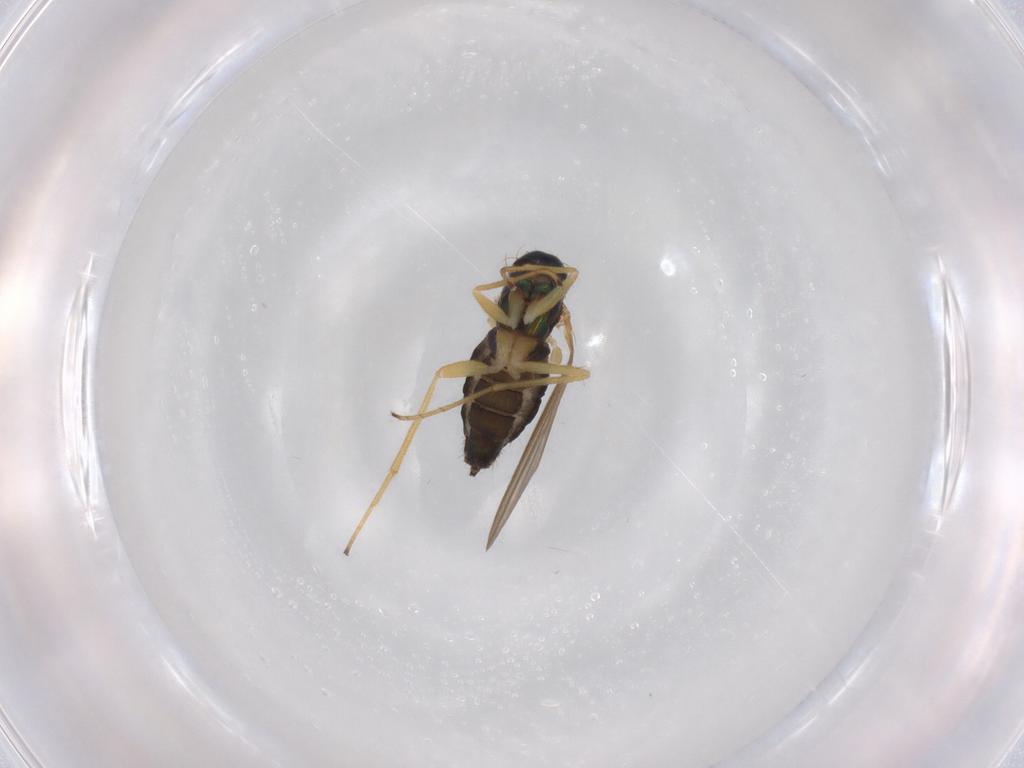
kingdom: Animalia
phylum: Arthropoda
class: Insecta
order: Diptera
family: Dolichopodidae
